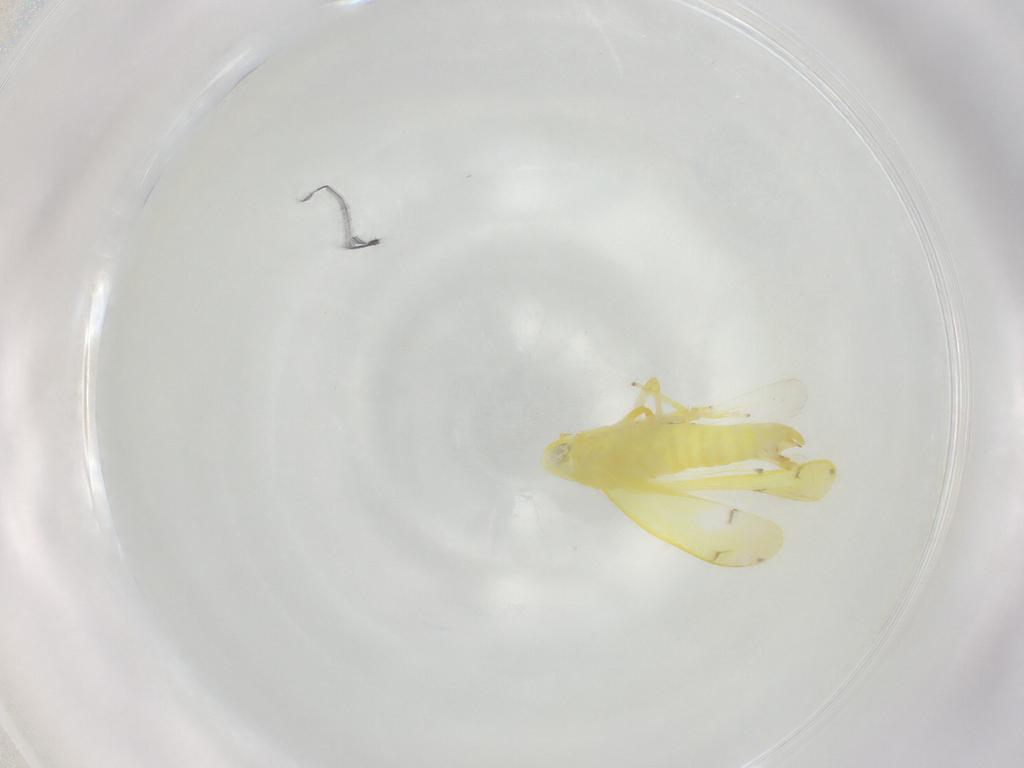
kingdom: Animalia
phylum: Arthropoda
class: Insecta
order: Hemiptera
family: Cicadellidae
